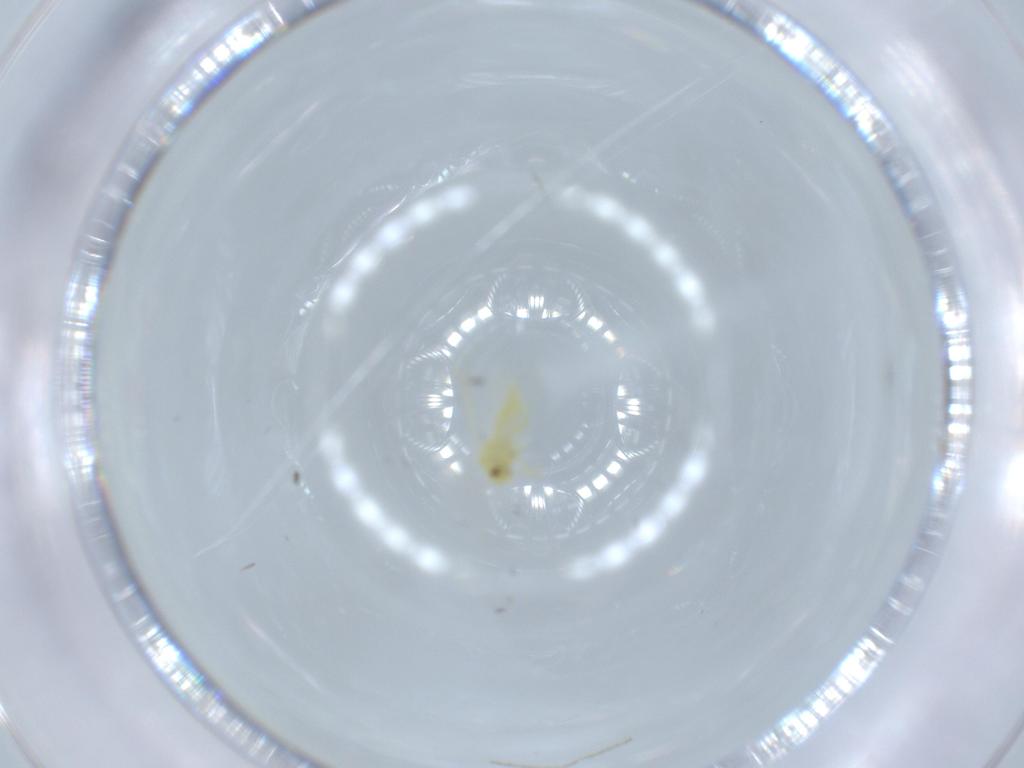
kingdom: Animalia
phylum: Arthropoda
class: Insecta
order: Hemiptera
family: Aleyrodidae
